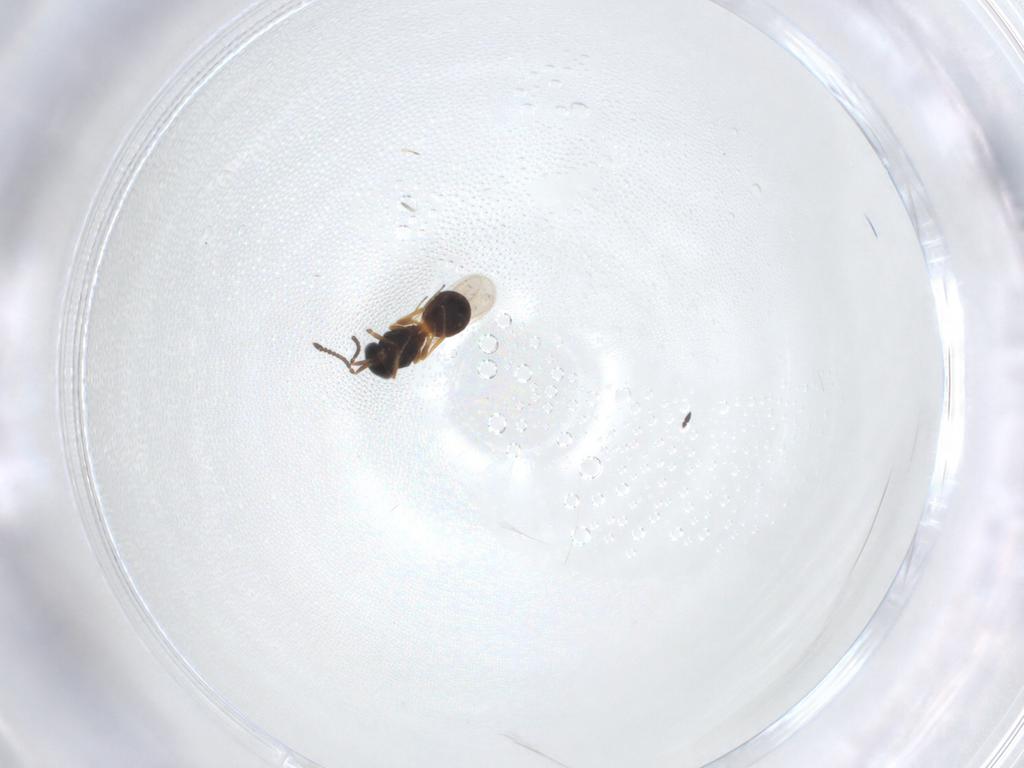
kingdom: Animalia
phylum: Arthropoda
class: Insecta
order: Hymenoptera
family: Scelionidae
